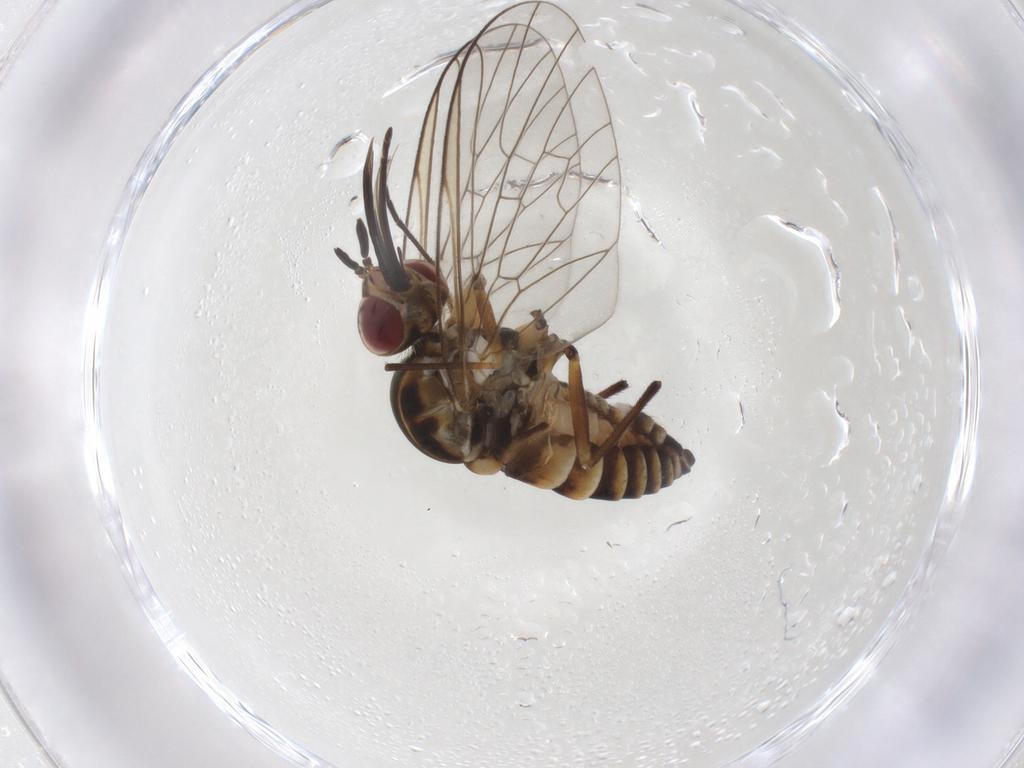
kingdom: Animalia
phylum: Arthropoda
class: Insecta
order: Diptera
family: Bombyliidae
